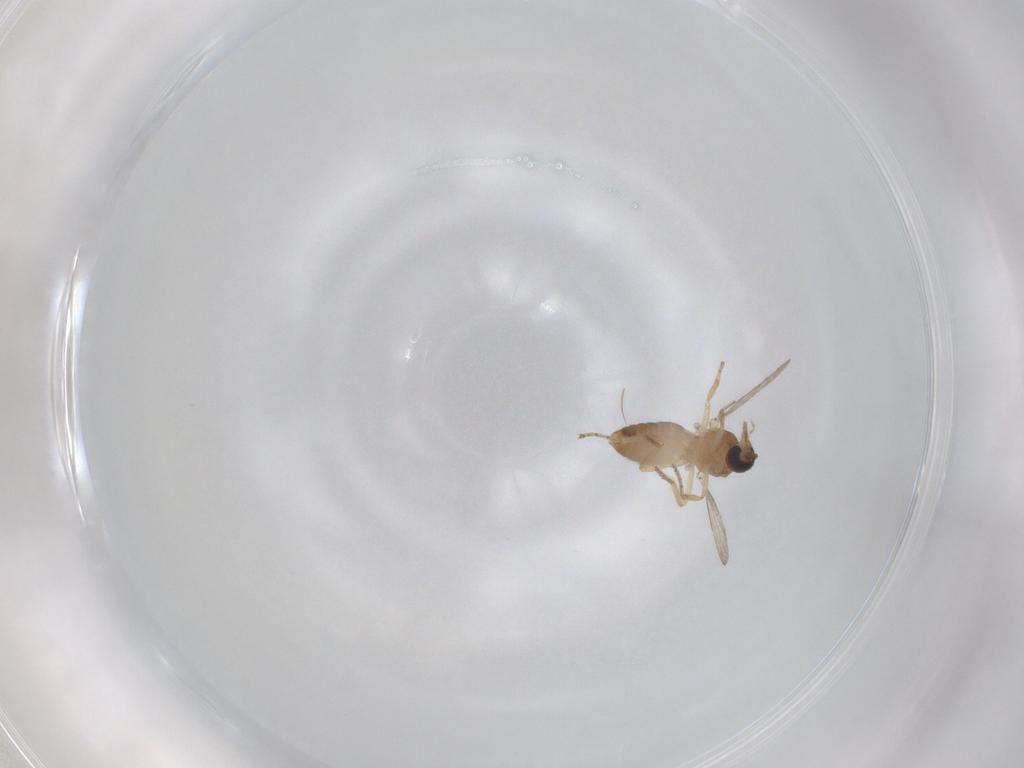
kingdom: Animalia
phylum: Arthropoda
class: Insecta
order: Diptera
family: Ceratopogonidae
